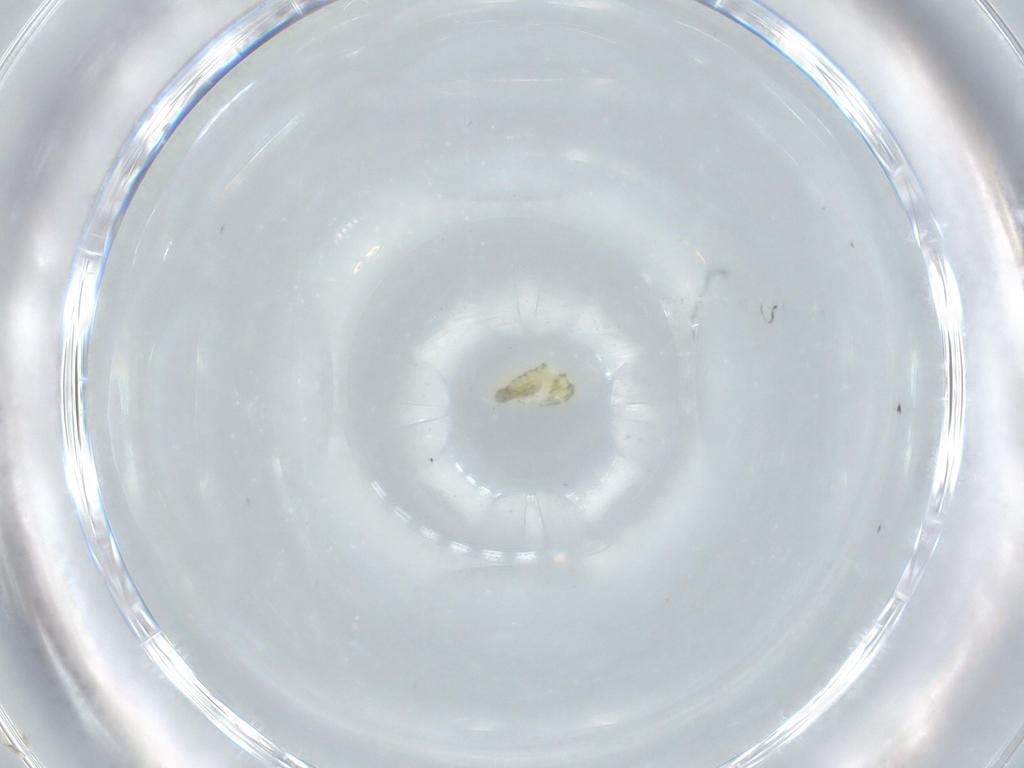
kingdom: Animalia
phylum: Arthropoda
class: Insecta
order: Diptera
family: Chironomidae
